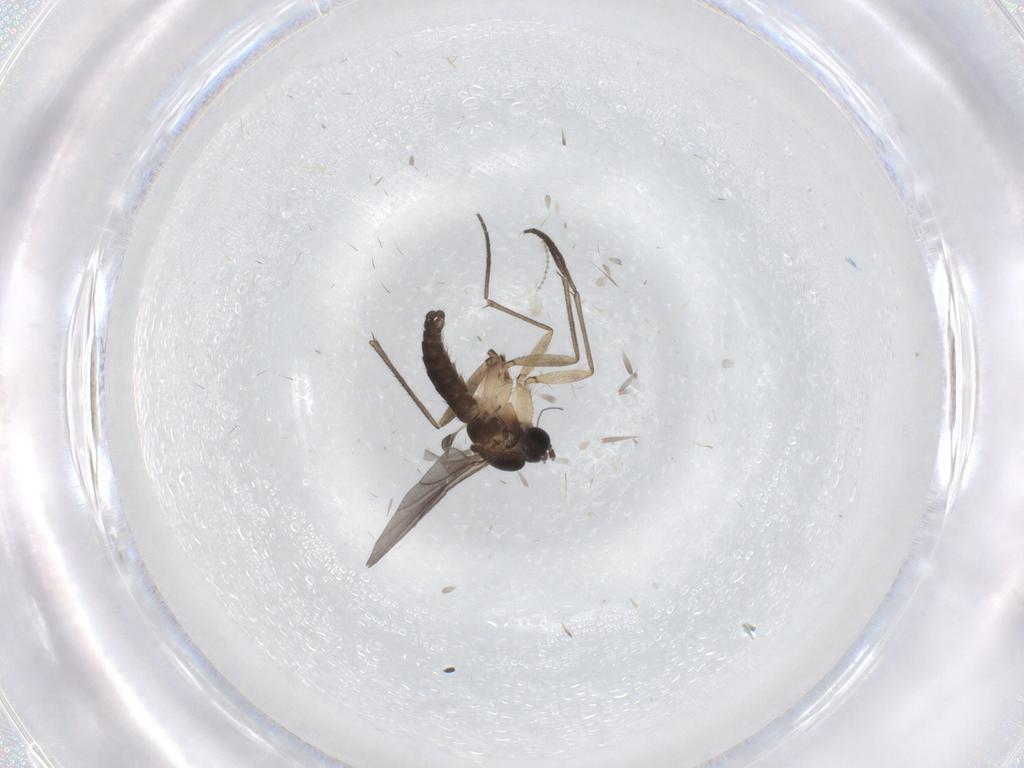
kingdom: Animalia
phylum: Arthropoda
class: Insecta
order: Diptera
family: Sciaridae
